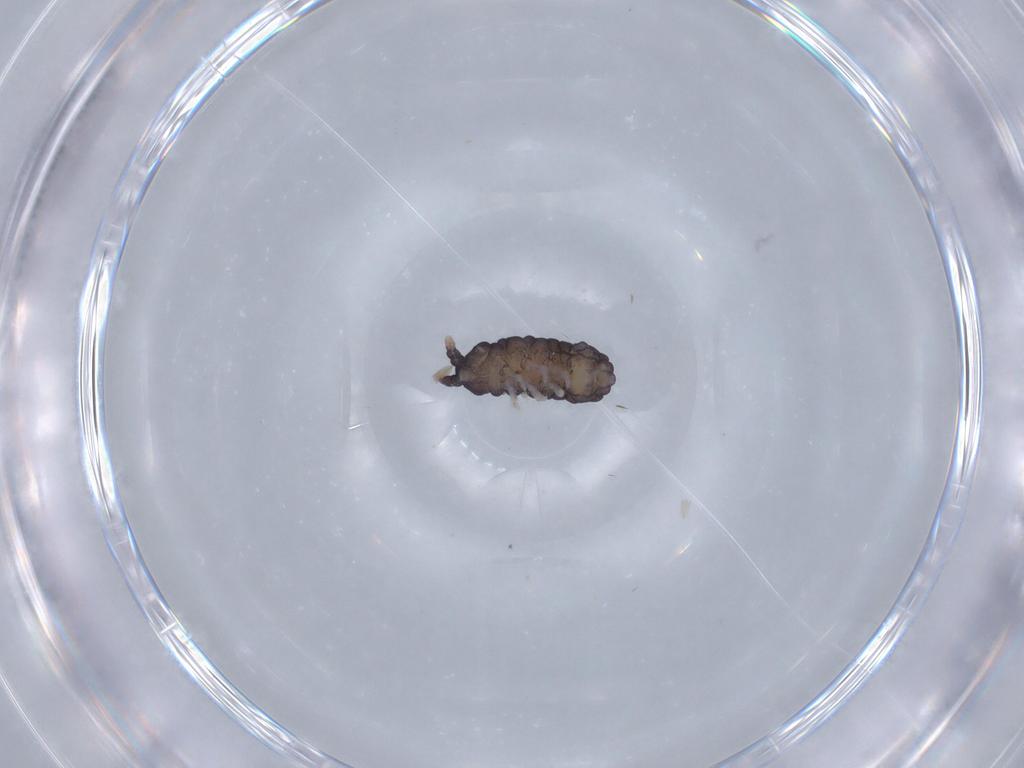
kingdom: Animalia
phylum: Arthropoda
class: Collembola
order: Poduromorpha
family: Neanuridae
